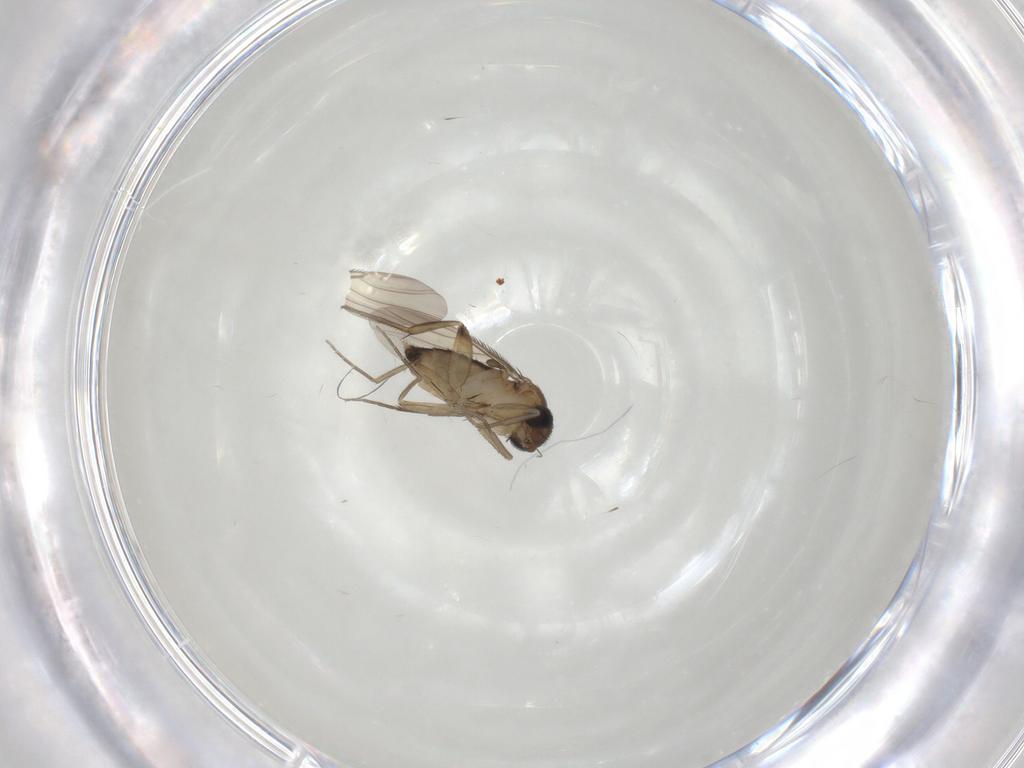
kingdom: Animalia
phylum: Arthropoda
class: Insecta
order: Diptera
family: Phoridae
